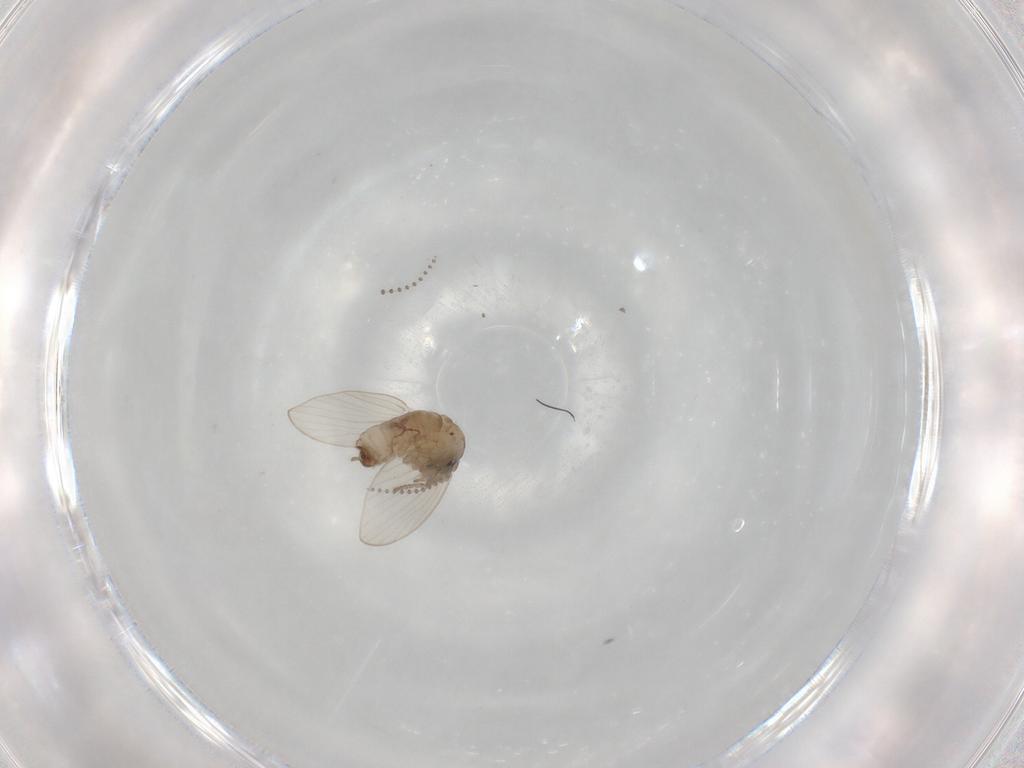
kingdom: Animalia
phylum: Arthropoda
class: Insecta
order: Diptera
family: Psychodidae
